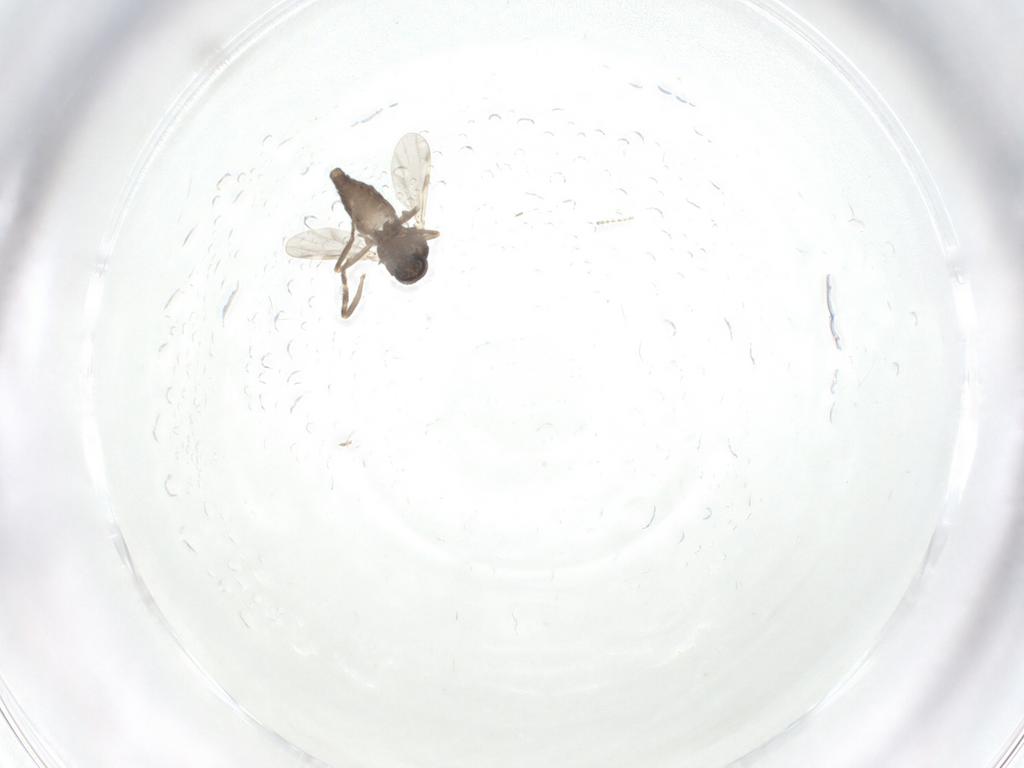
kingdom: Animalia
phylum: Arthropoda
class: Insecta
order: Diptera
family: Ceratopogonidae
